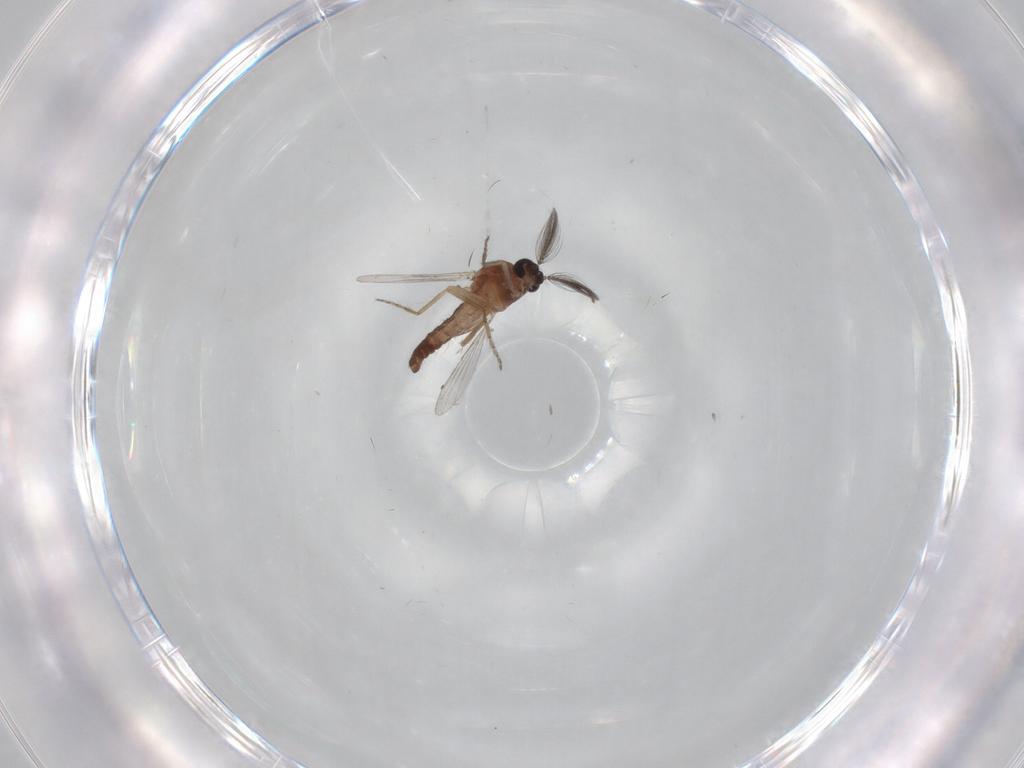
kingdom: Animalia
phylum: Arthropoda
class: Insecta
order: Diptera
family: Ceratopogonidae
